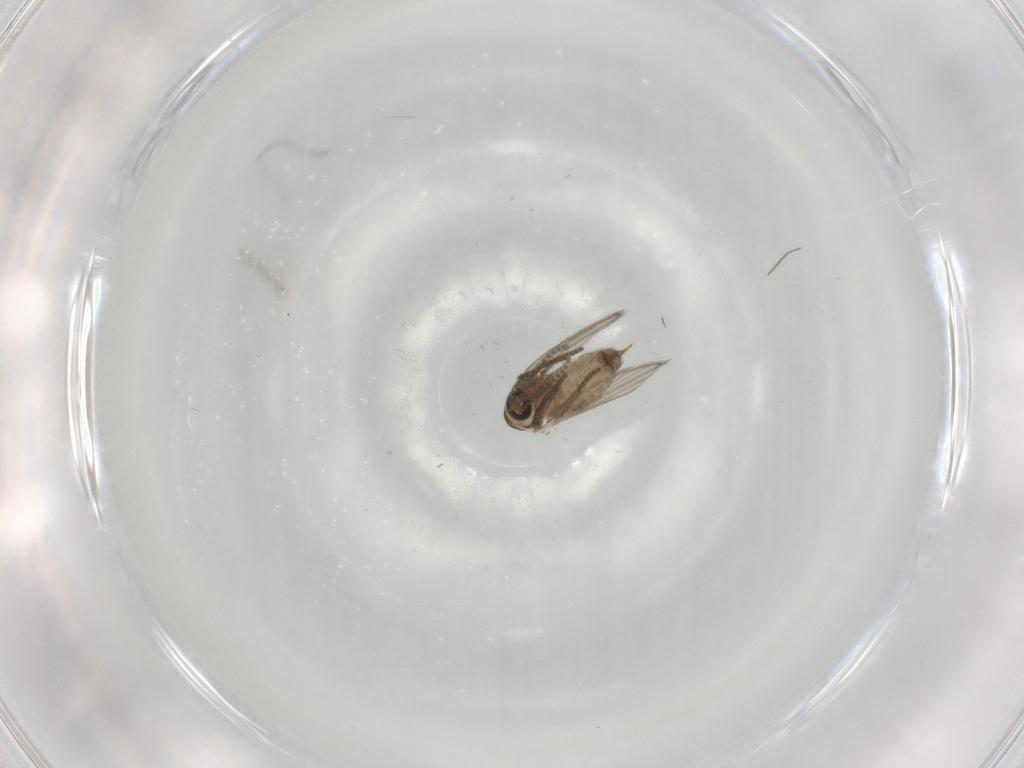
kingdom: Animalia
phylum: Arthropoda
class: Insecta
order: Diptera
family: Psychodidae
